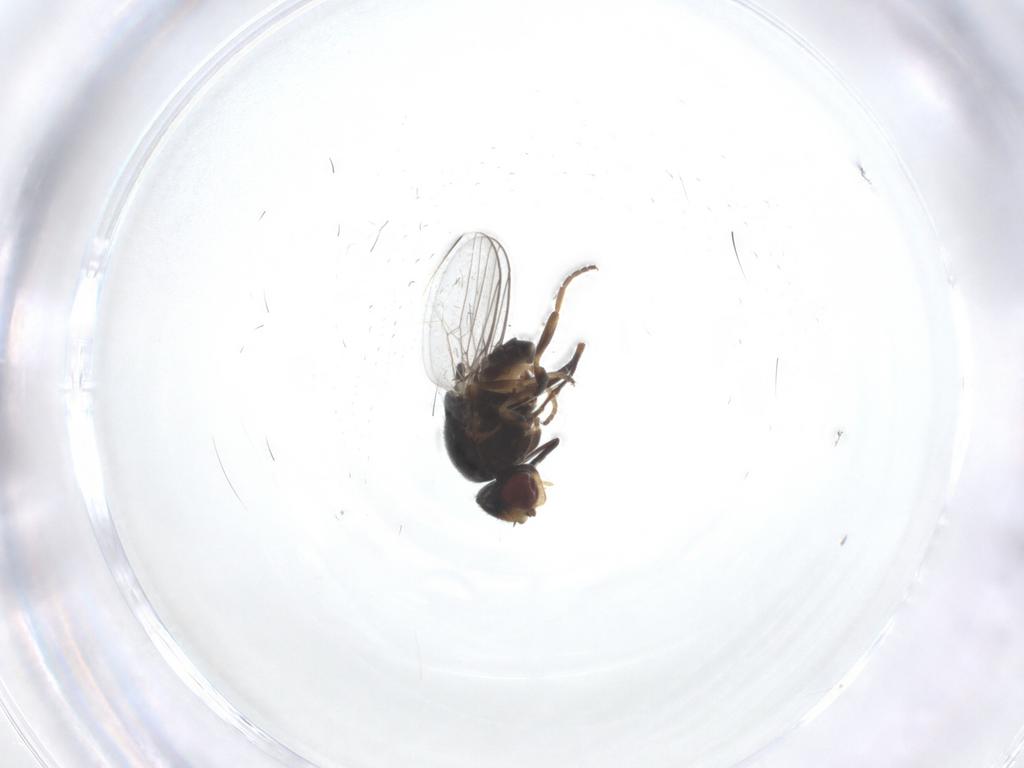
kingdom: Animalia
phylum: Arthropoda
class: Insecta
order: Diptera
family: Chloropidae
